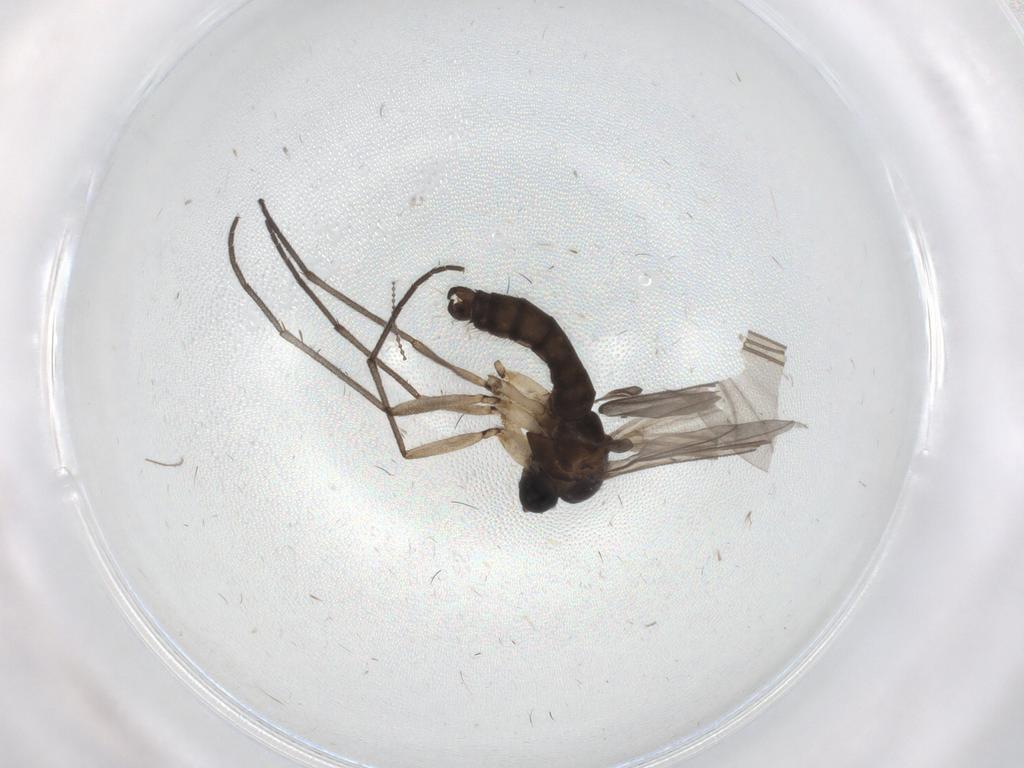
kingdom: Animalia
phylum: Arthropoda
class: Insecta
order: Diptera
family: Sciaridae
